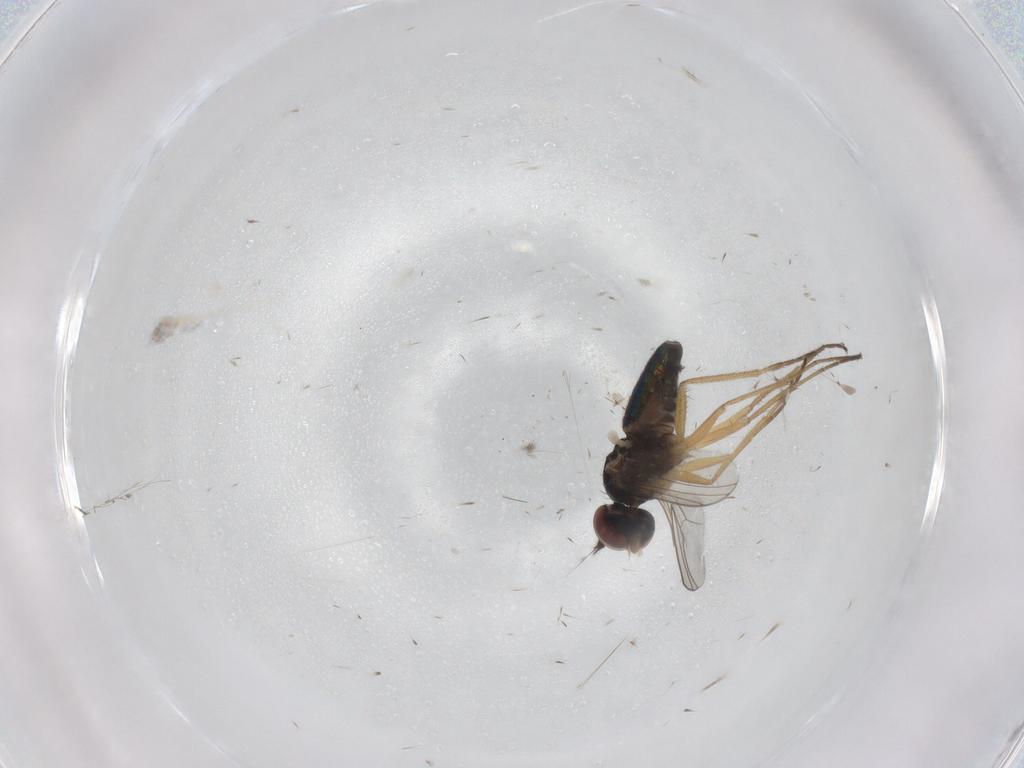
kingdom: Animalia
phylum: Arthropoda
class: Insecta
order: Diptera
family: Dolichopodidae
